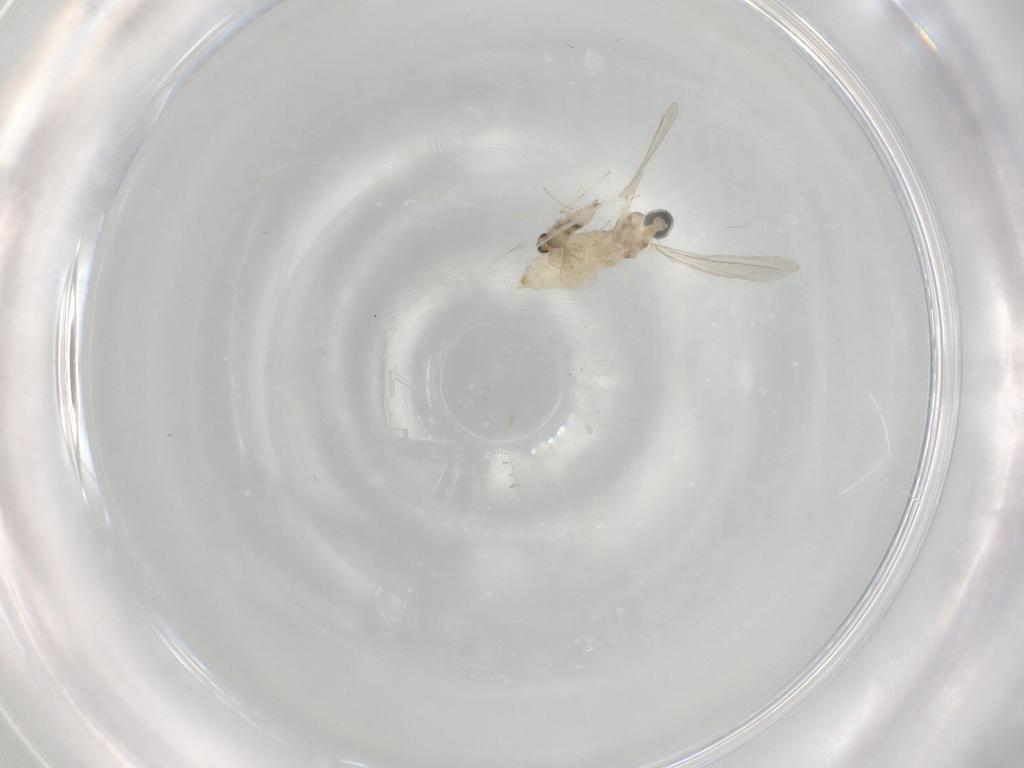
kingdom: Animalia
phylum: Arthropoda
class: Insecta
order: Diptera
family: Cecidomyiidae
